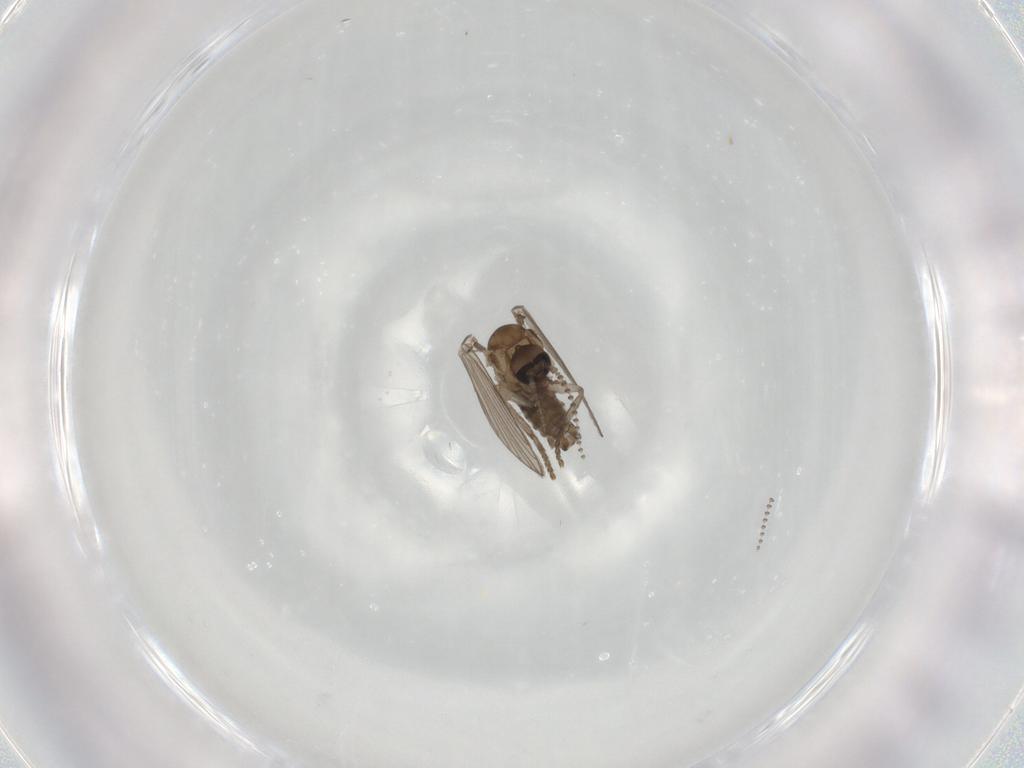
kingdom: Animalia
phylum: Arthropoda
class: Insecta
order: Diptera
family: Psychodidae
